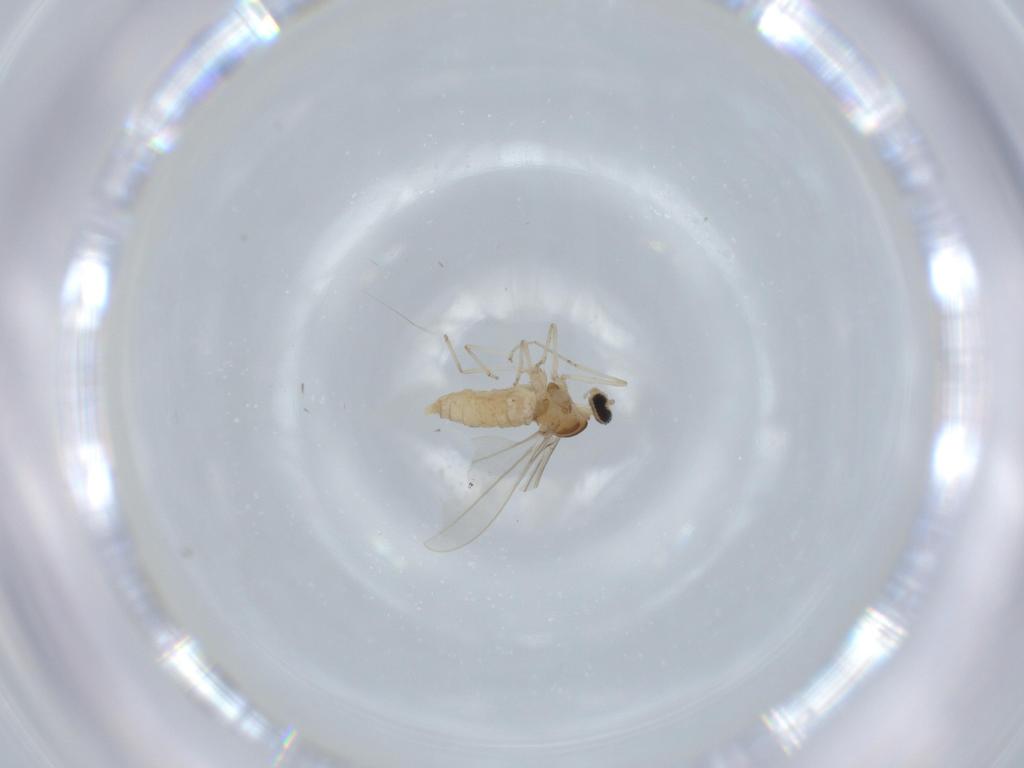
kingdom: Animalia
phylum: Arthropoda
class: Insecta
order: Diptera
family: Cecidomyiidae
